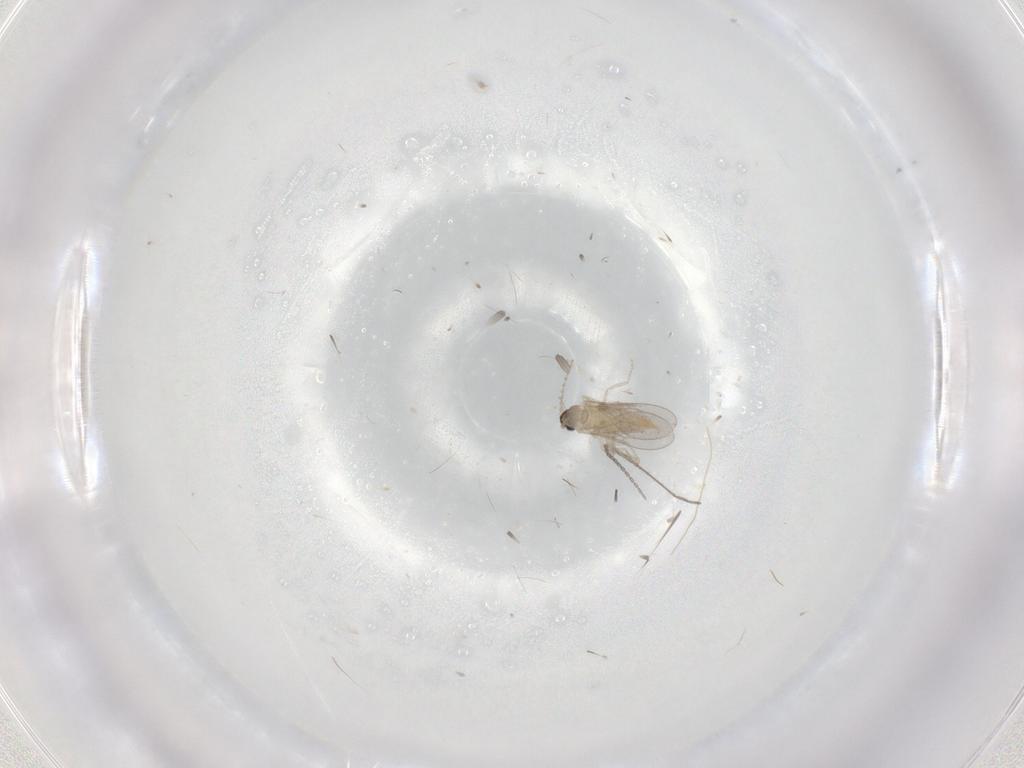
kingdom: Animalia
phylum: Arthropoda
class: Insecta
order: Diptera
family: Cecidomyiidae
